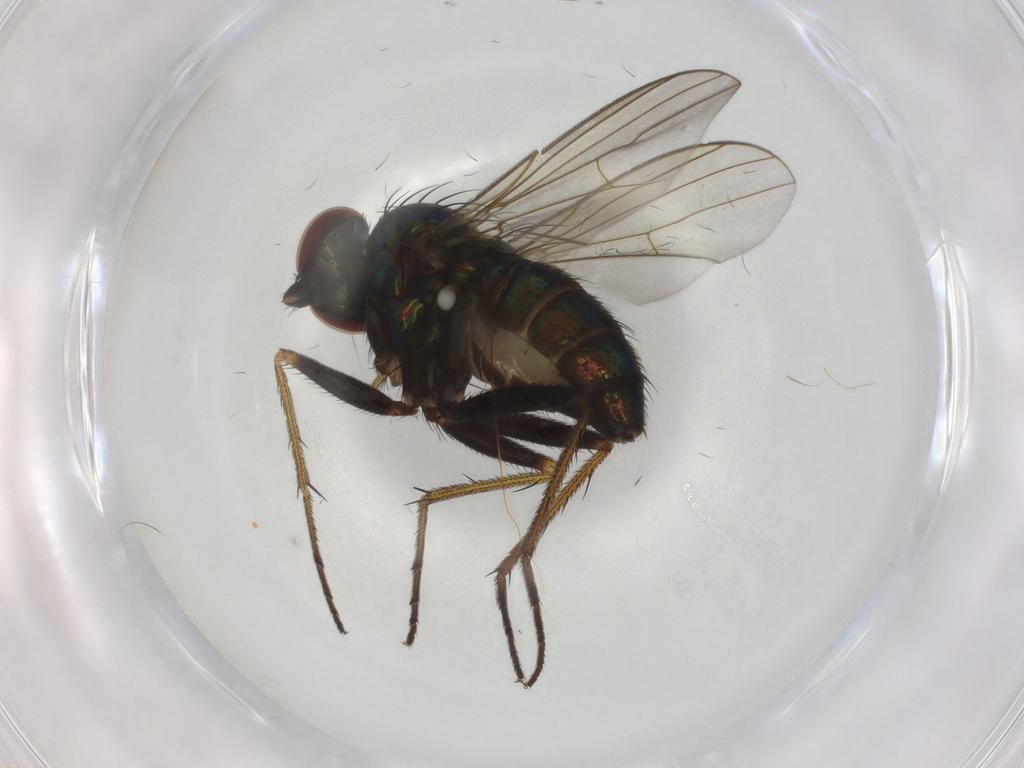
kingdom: Animalia
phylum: Arthropoda
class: Insecta
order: Diptera
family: Dolichopodidae
